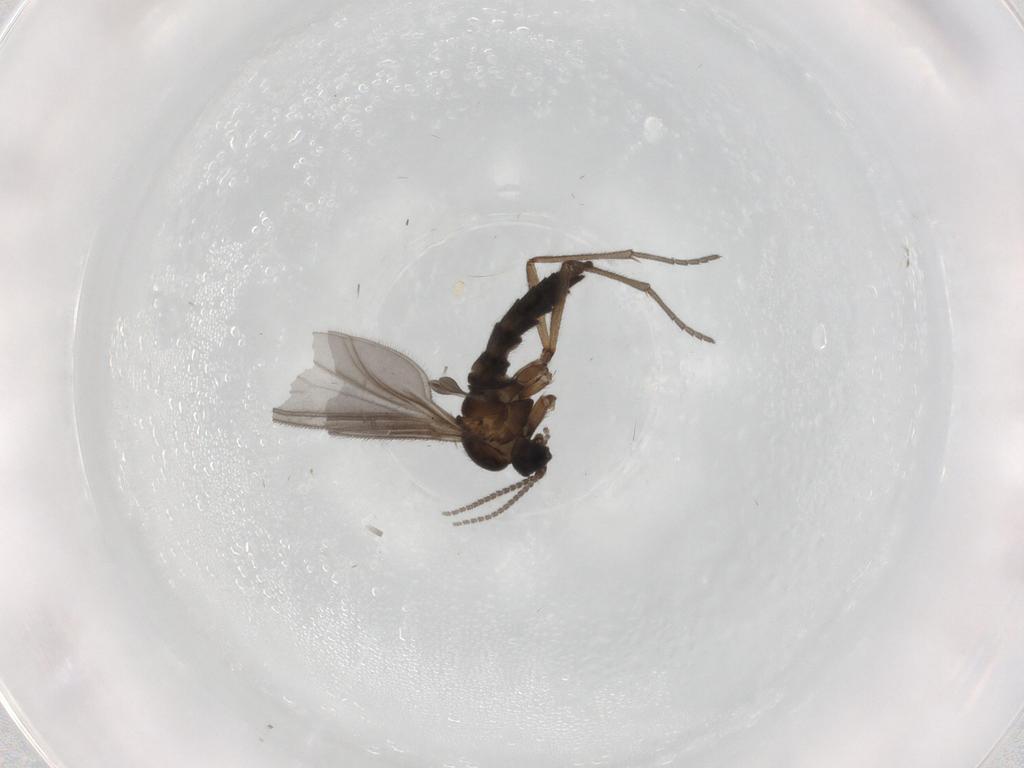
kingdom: Animalia
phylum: Arthropoda
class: Insecta
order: Diptera
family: Sciaridae
